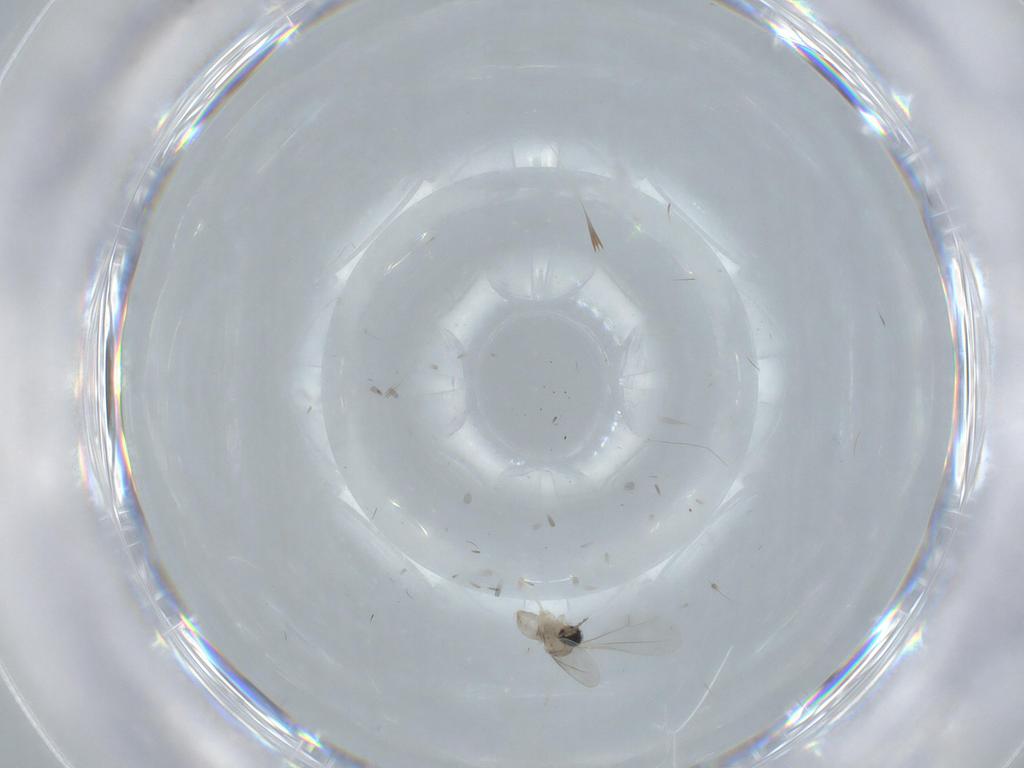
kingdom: Animalia
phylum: Arthropoda
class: Insecta
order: Diptera
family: Cecidomyiidae
